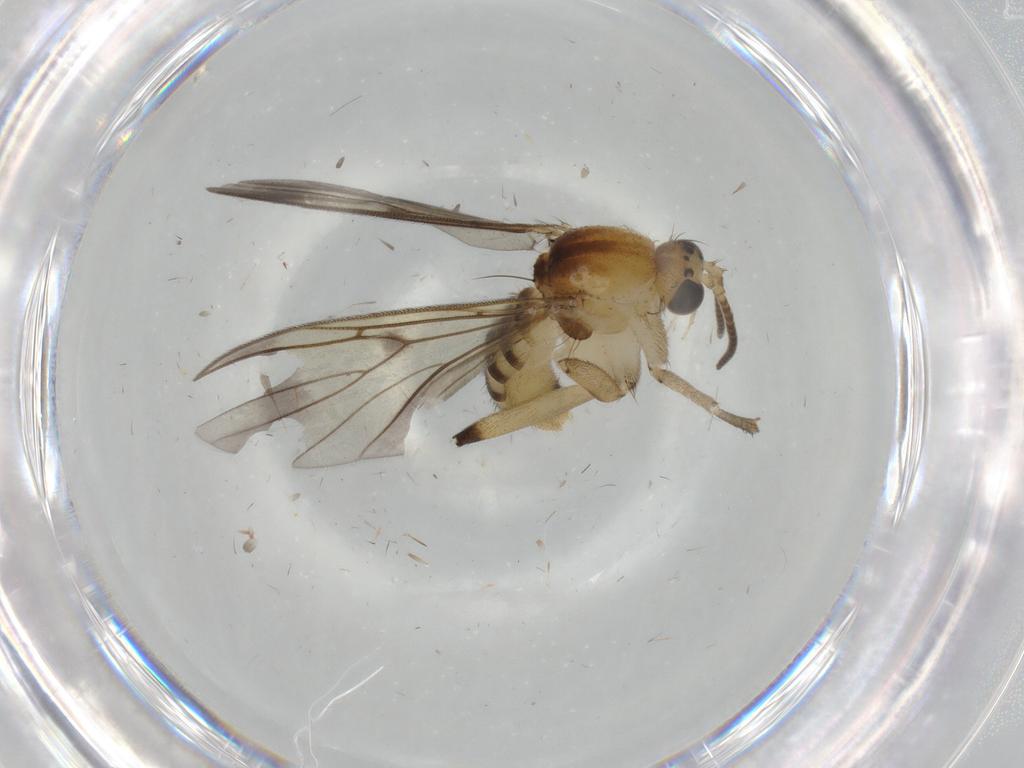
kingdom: Animalia
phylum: Arthropoda
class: Insecta
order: Diptera
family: Mycetophilidae
